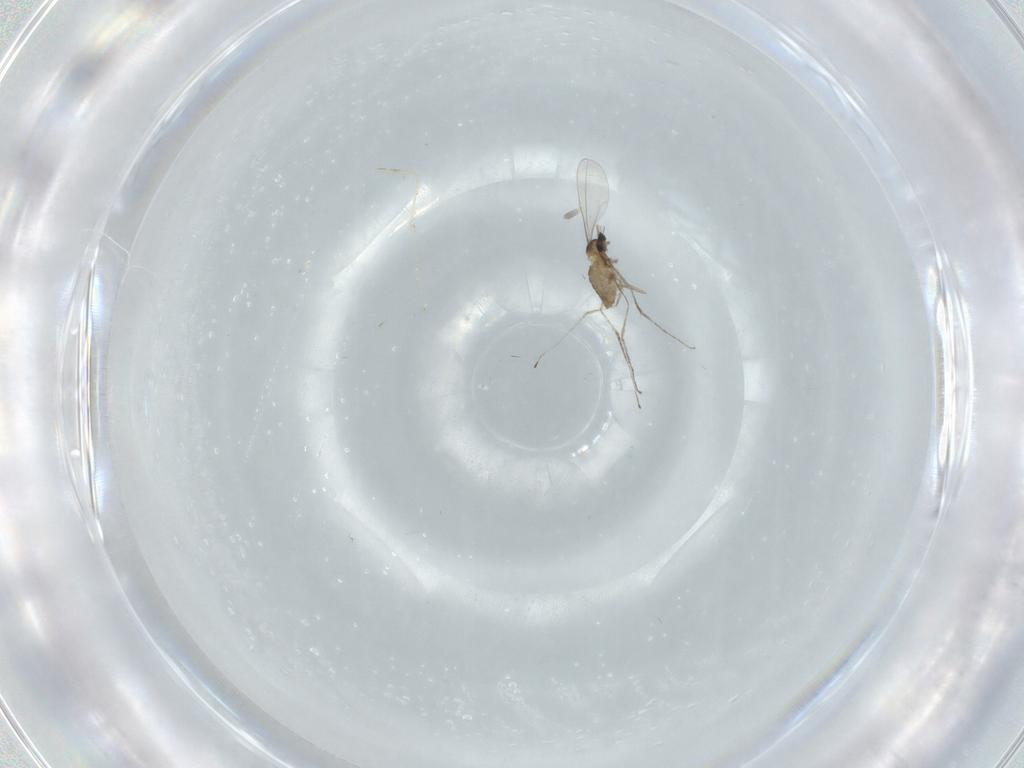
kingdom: Animalia
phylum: Arthropoda
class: Insecta
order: Diptera
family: Cecidomyiidae
